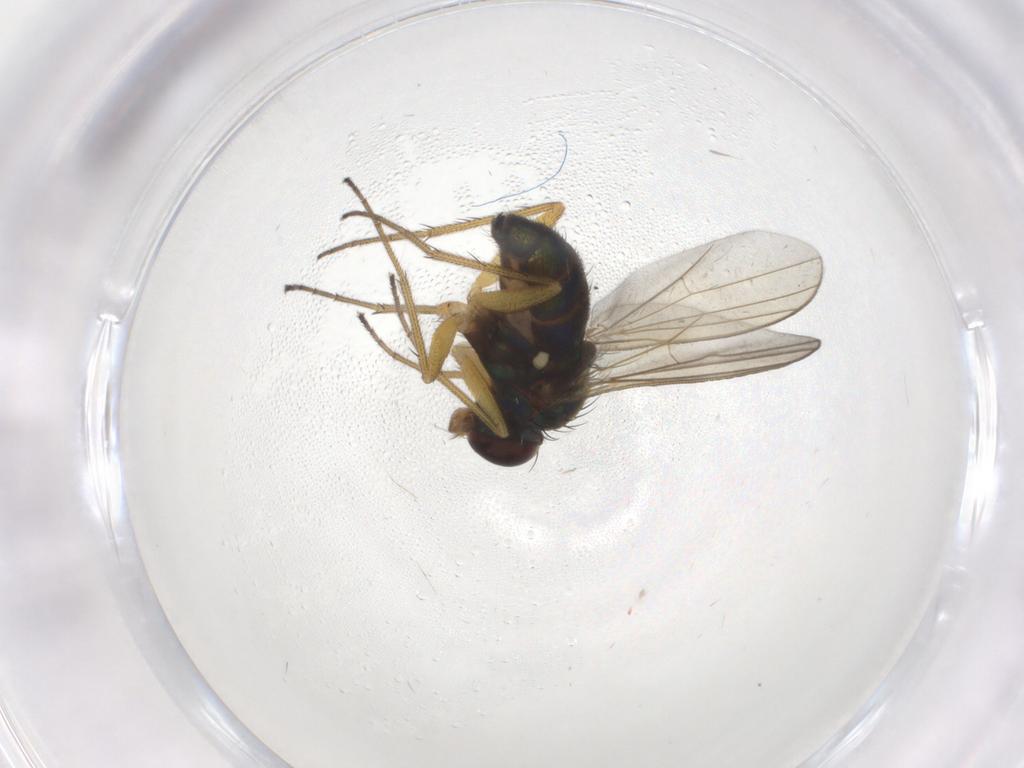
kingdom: Animalia
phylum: Arthropoda
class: Insecta
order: Diptera
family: Dolichopodidae
